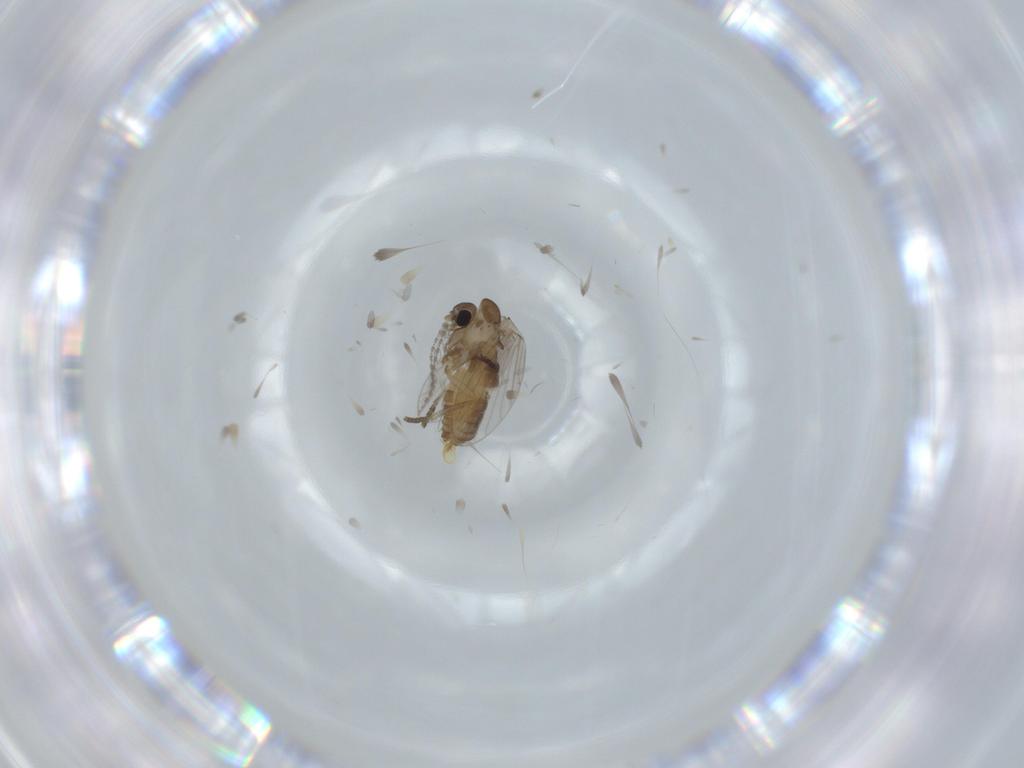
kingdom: Animalia
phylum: Arthropoda
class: Insecta
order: Diptera
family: Psychodidae
